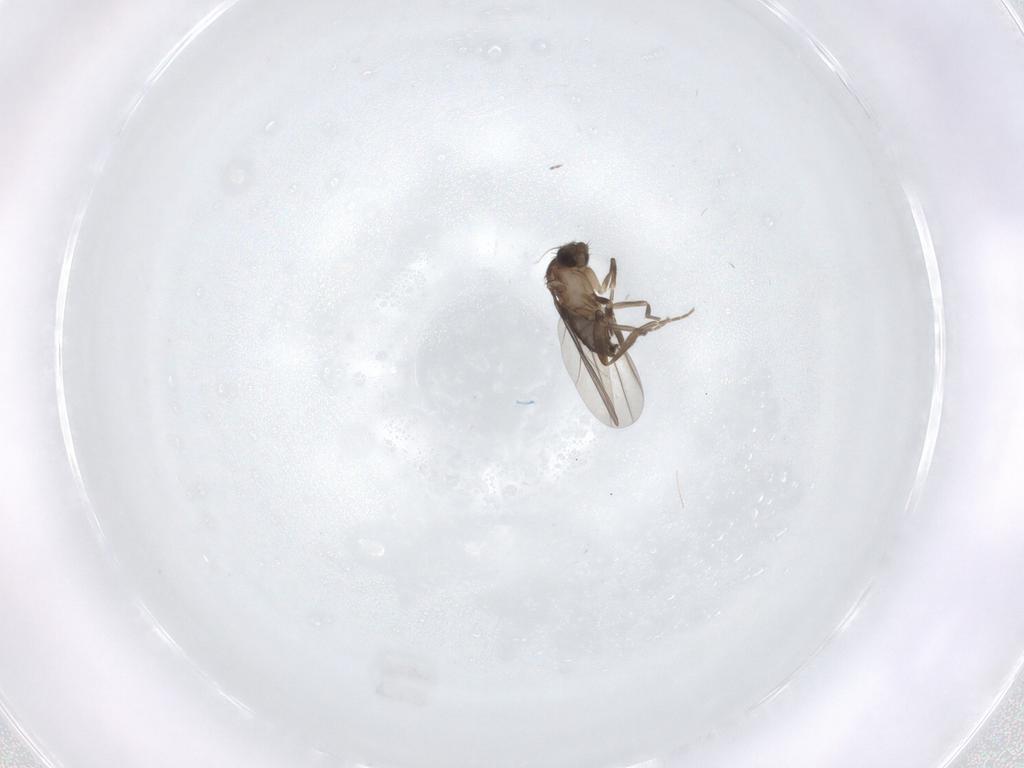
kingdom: Animalia
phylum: Arthropoda
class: Insecta
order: Diptera
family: Phoridae
